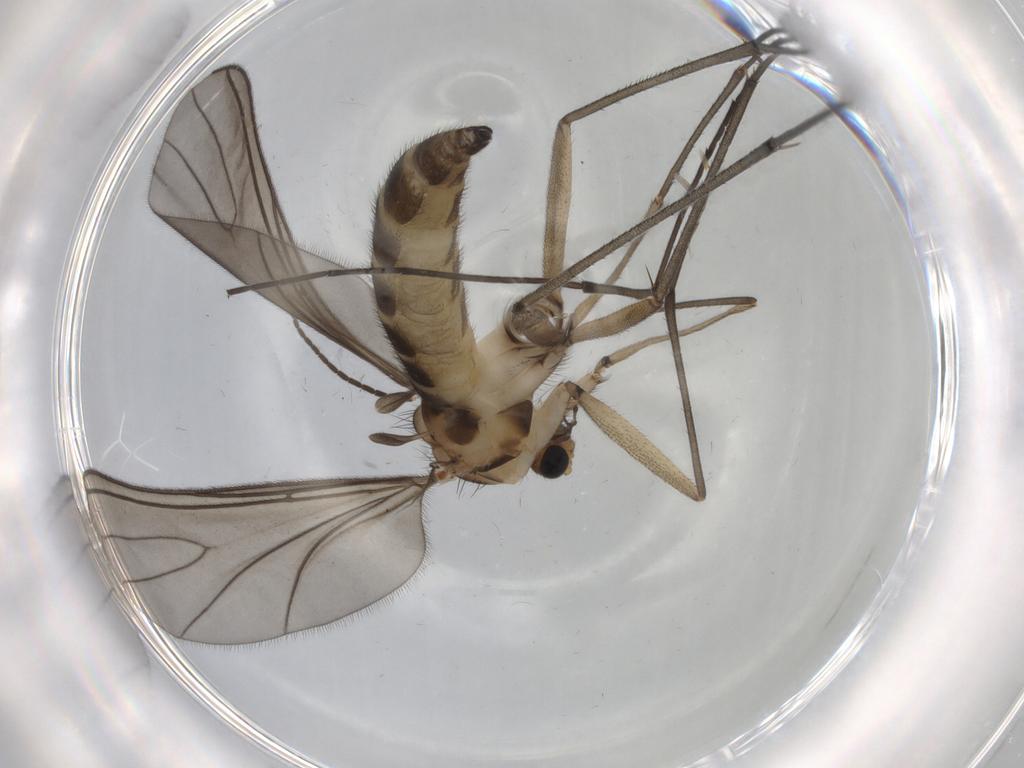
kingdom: Animalia
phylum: Arthropoda
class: Insecta
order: Diptera
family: Sciaridae
